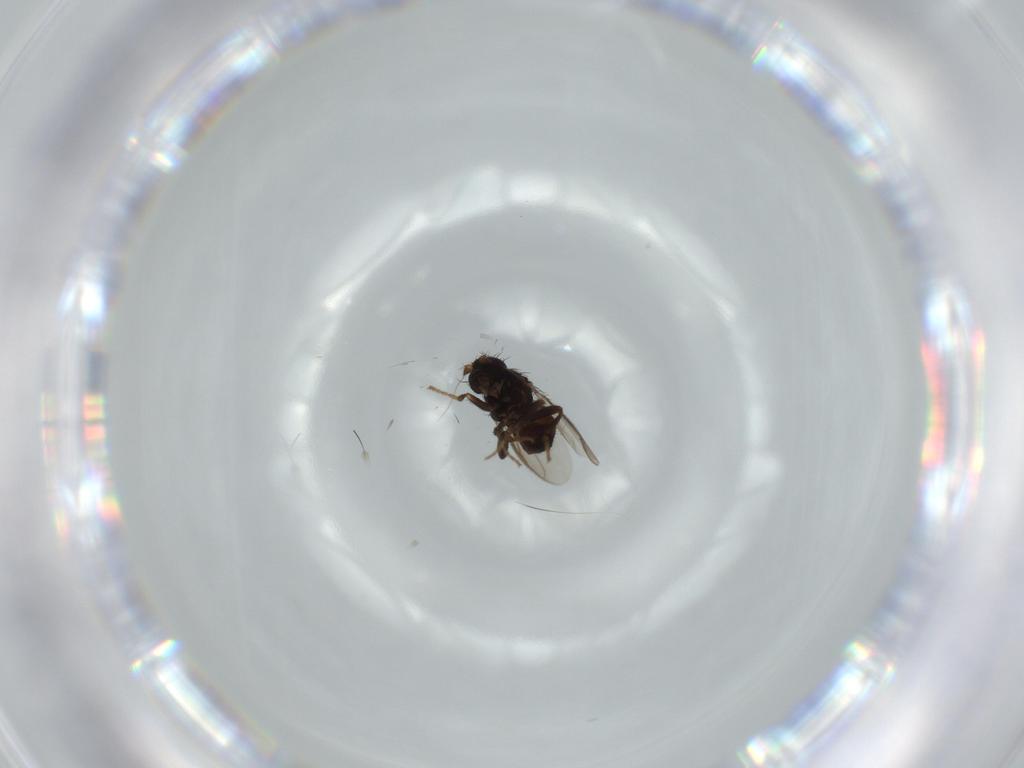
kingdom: Animalia
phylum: Arthropoda
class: Insecta
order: Diptera
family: Sphaeroceridae
